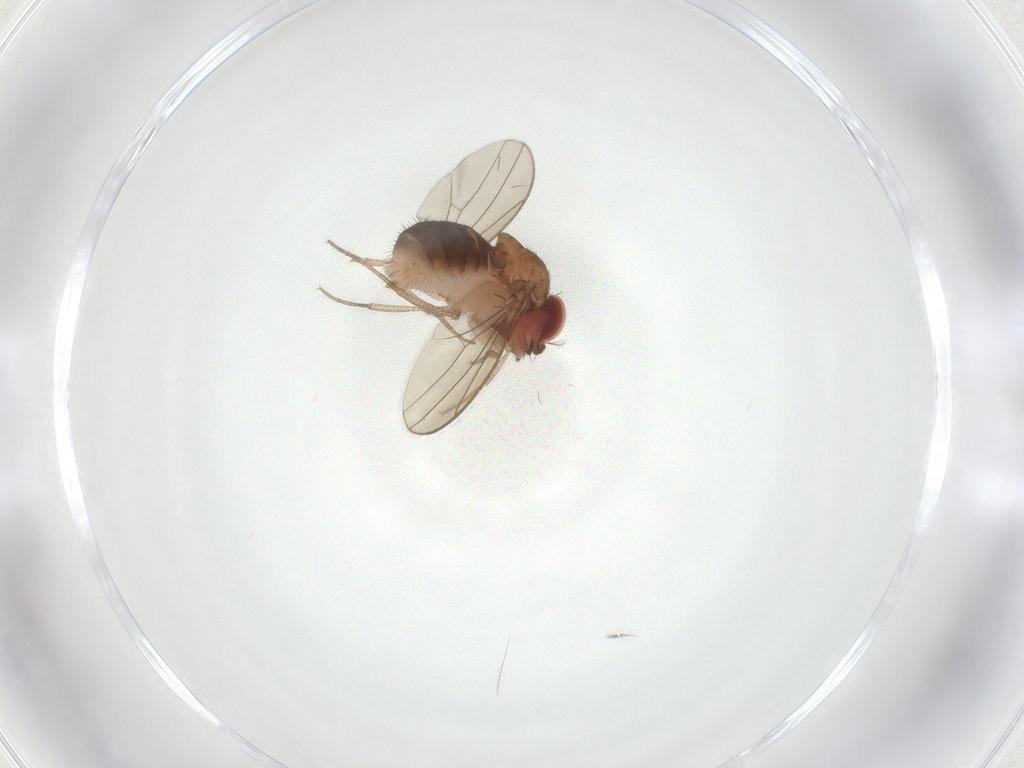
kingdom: Animalia
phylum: Arthropoda
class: Insecta
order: Diptera
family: Drosophilidae
